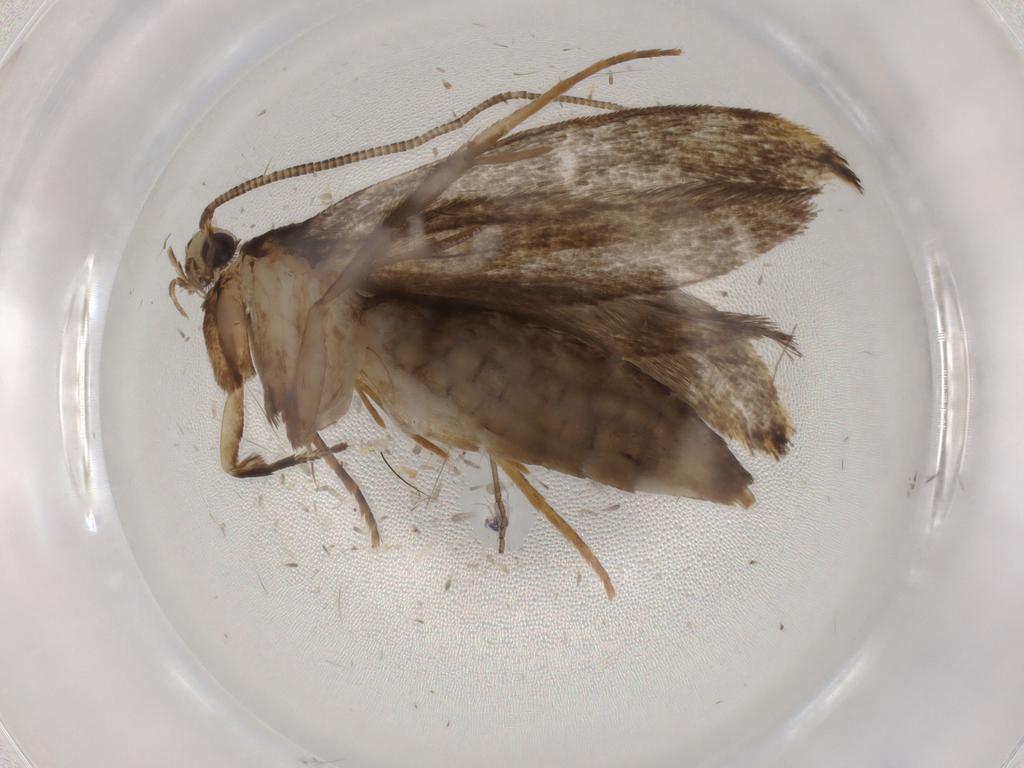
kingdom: Animalia
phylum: Arthropoda
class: Insecta
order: Lepidoptera
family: Tineidae
